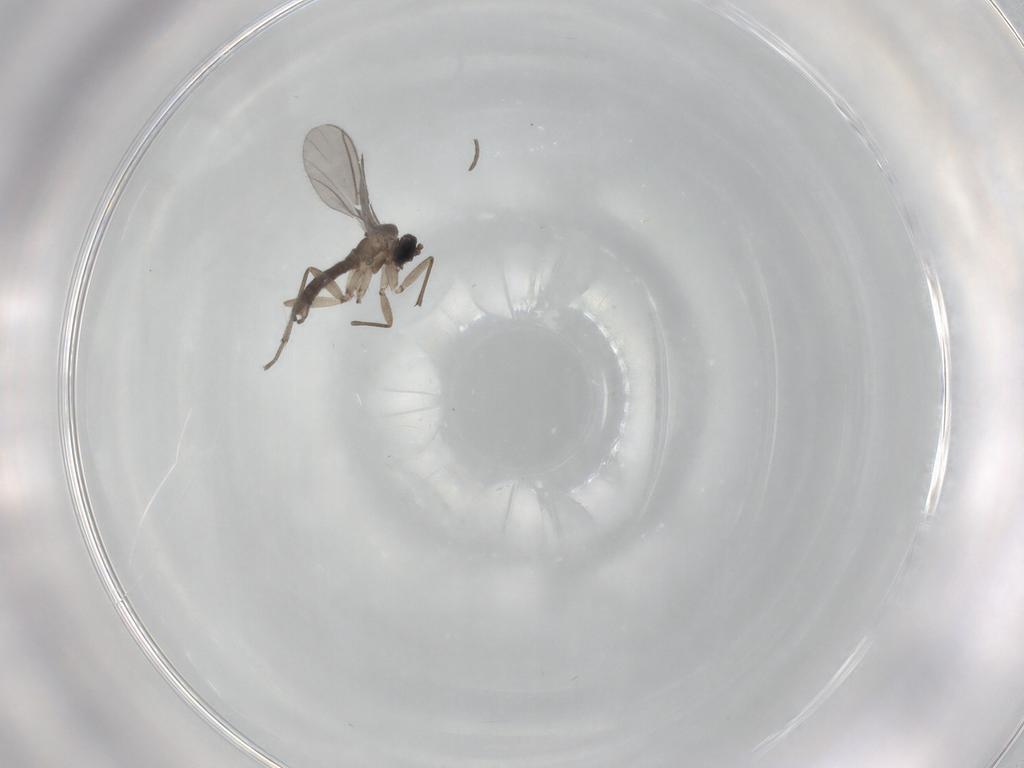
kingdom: Animalia
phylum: Arthropoda
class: Insecta
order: Diptera
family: Sciaridae
